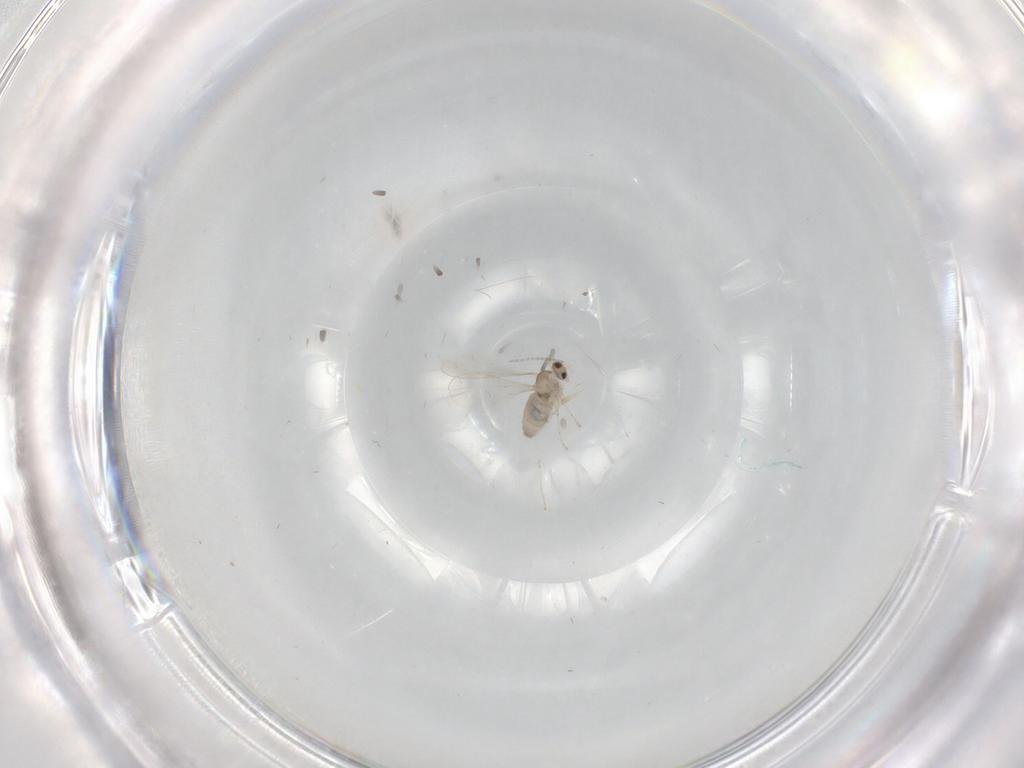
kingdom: Animalia
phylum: Arthropoda
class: Insecta
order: Diptera
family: Cecidomyiidae
